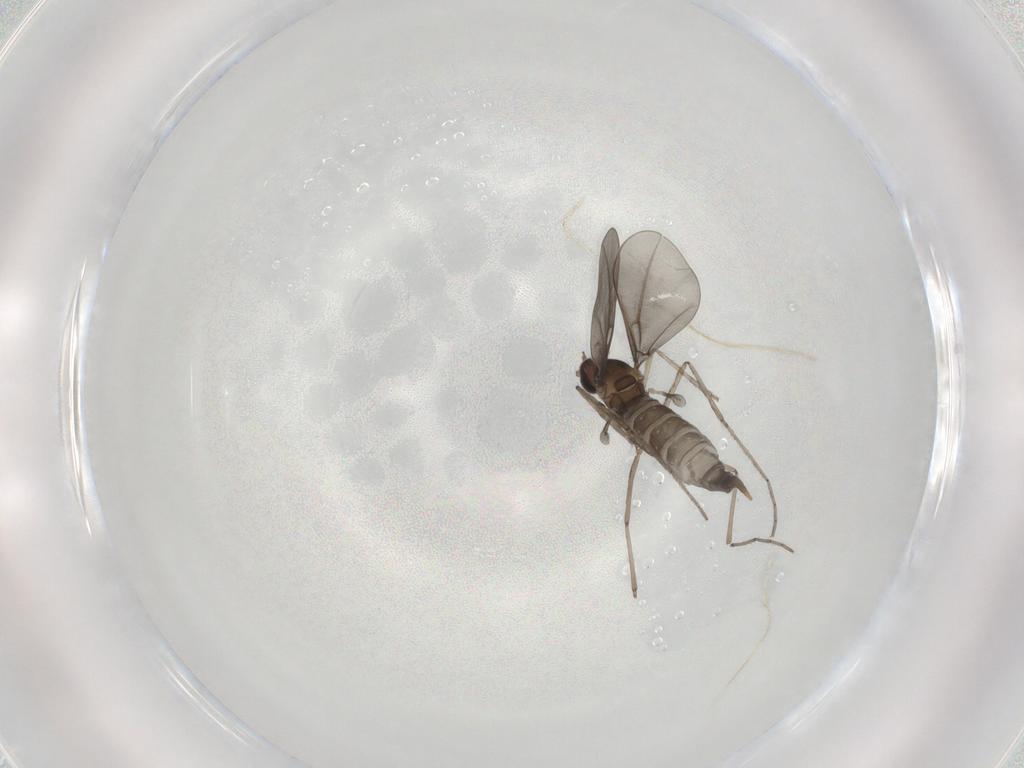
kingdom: Animalia
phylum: Arthropoda
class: Insecta
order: Diptera
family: Cecidomyiidae
